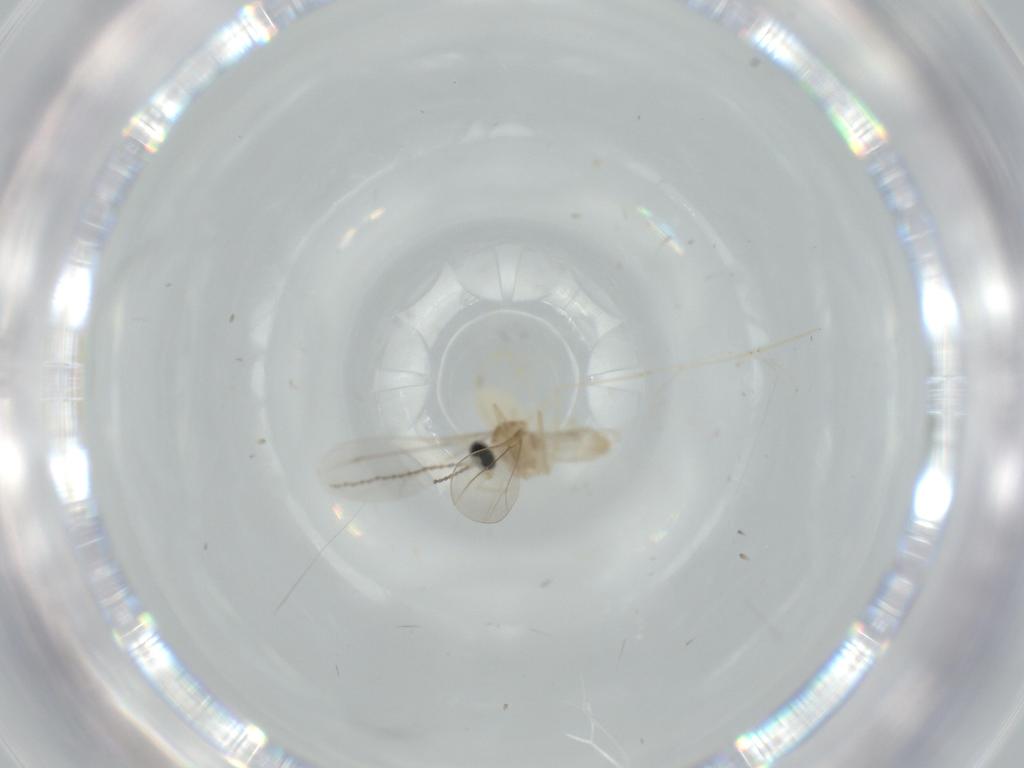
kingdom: Animalia
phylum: Arthropoda
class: Insecta
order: Diptera
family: Cecidomyiidae
